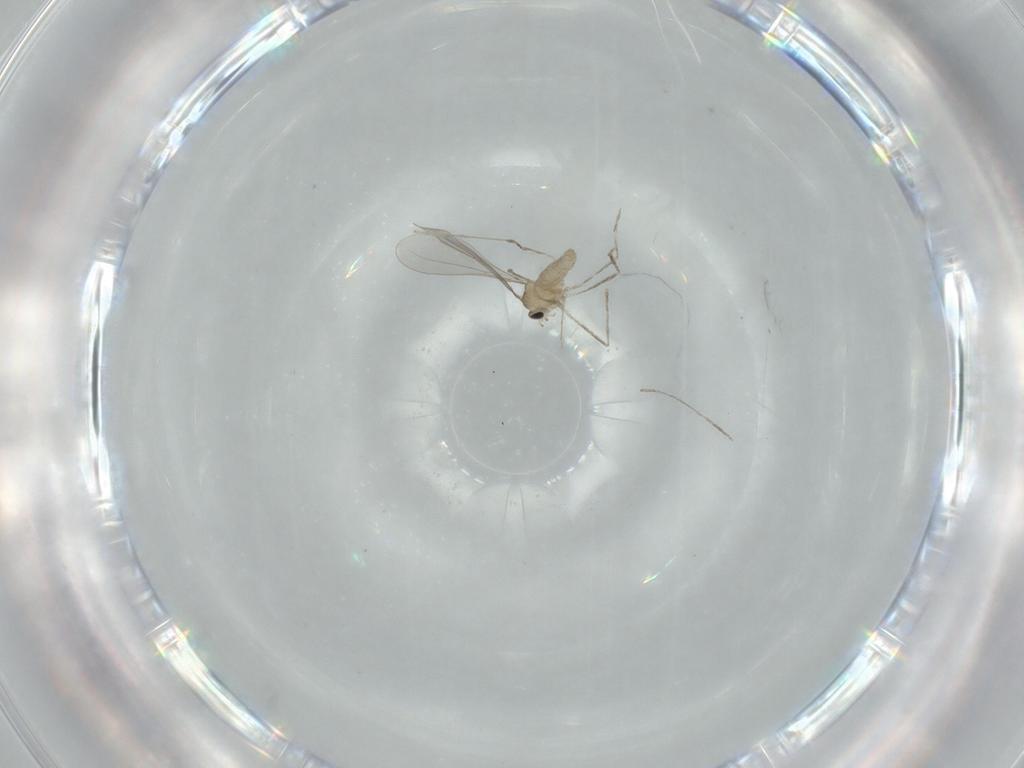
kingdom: Animalia
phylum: Arthropoda
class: Insecta
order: Diptera
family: Cecidomyiidae
